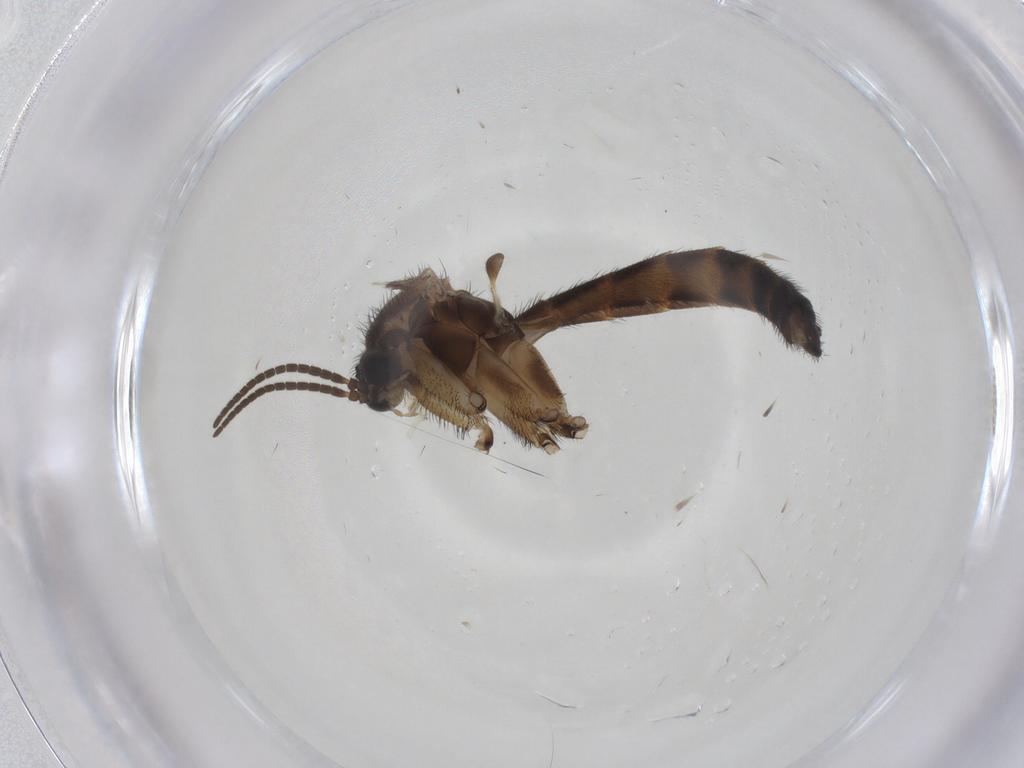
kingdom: Animalia
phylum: Arthropoda
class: Insecta
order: Diptera
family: Keroplatidae
